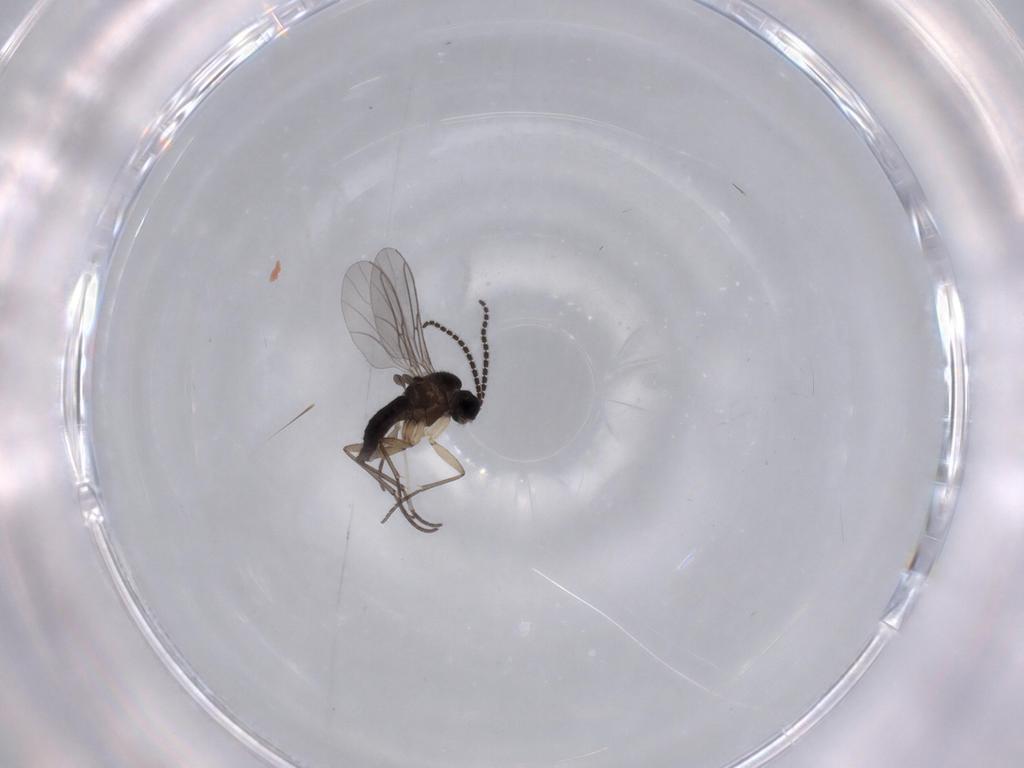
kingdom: Animalia
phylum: Arthropoda
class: Insecta
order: Diptera
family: Sciaridae
